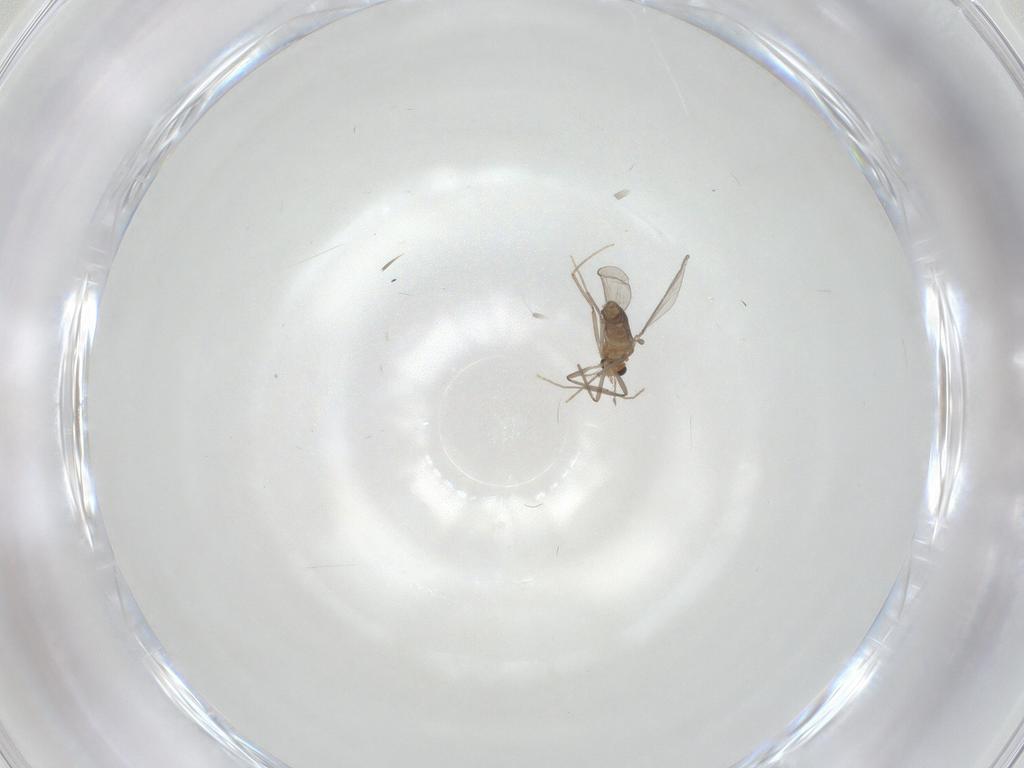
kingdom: Animalia
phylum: Arthropoda
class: Insecta
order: Diptera
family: Chironomidae
